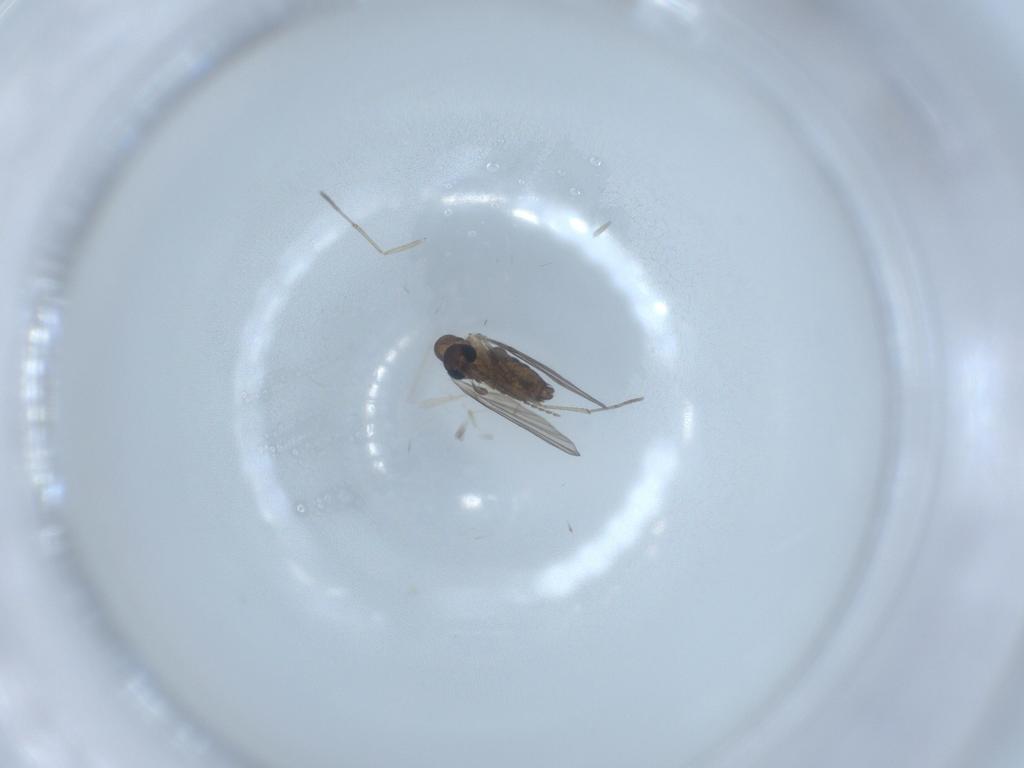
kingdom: Animalia
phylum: Arthropoda
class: Insecta
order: Diptera
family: Psychodidae
